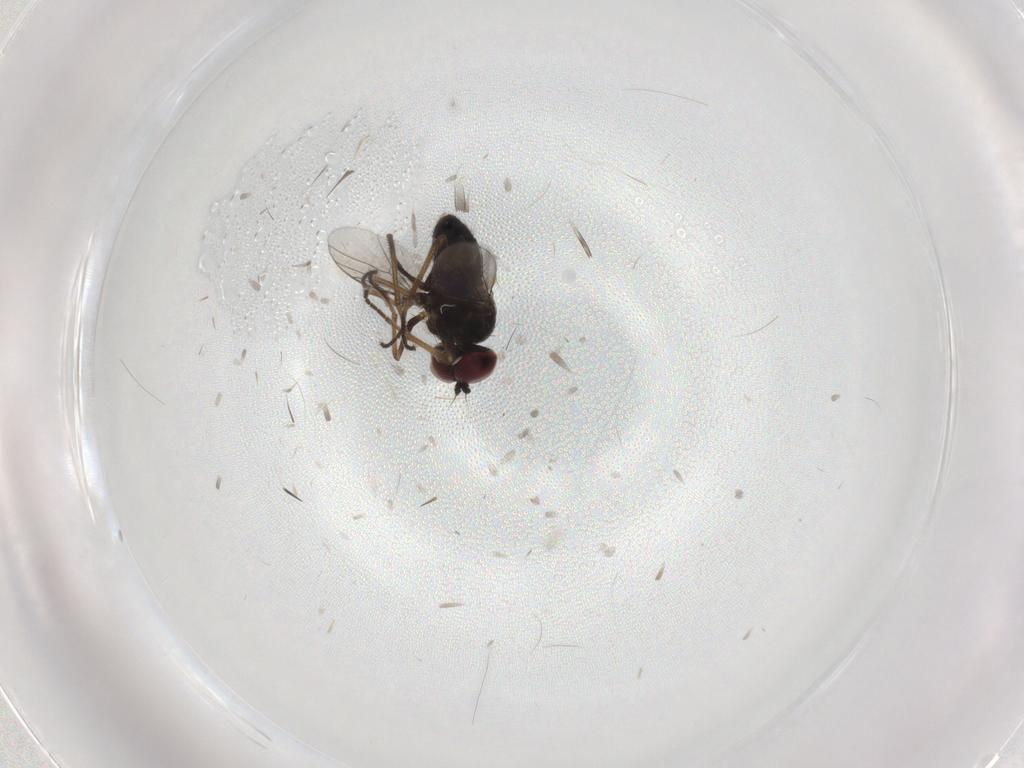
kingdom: Animalia
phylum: Arthropoda
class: Insecta
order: Diptera
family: Dolichopodidae
